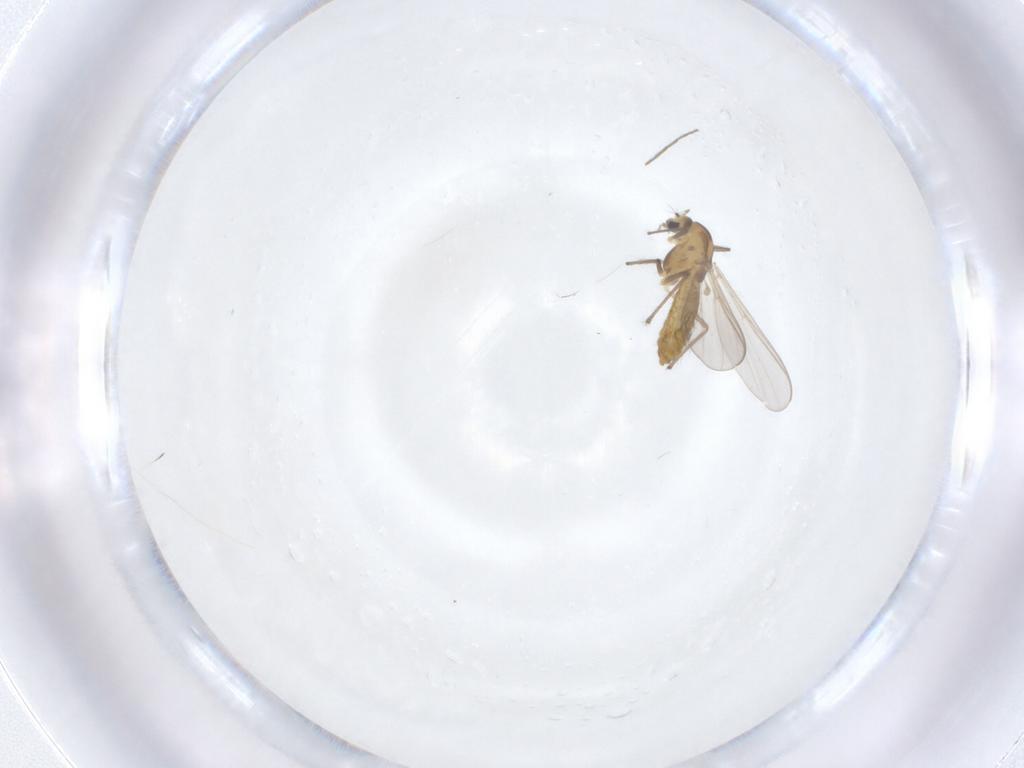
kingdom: Animalia
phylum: Arthropoda
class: Insecta
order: Diptera
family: Chironomidae
